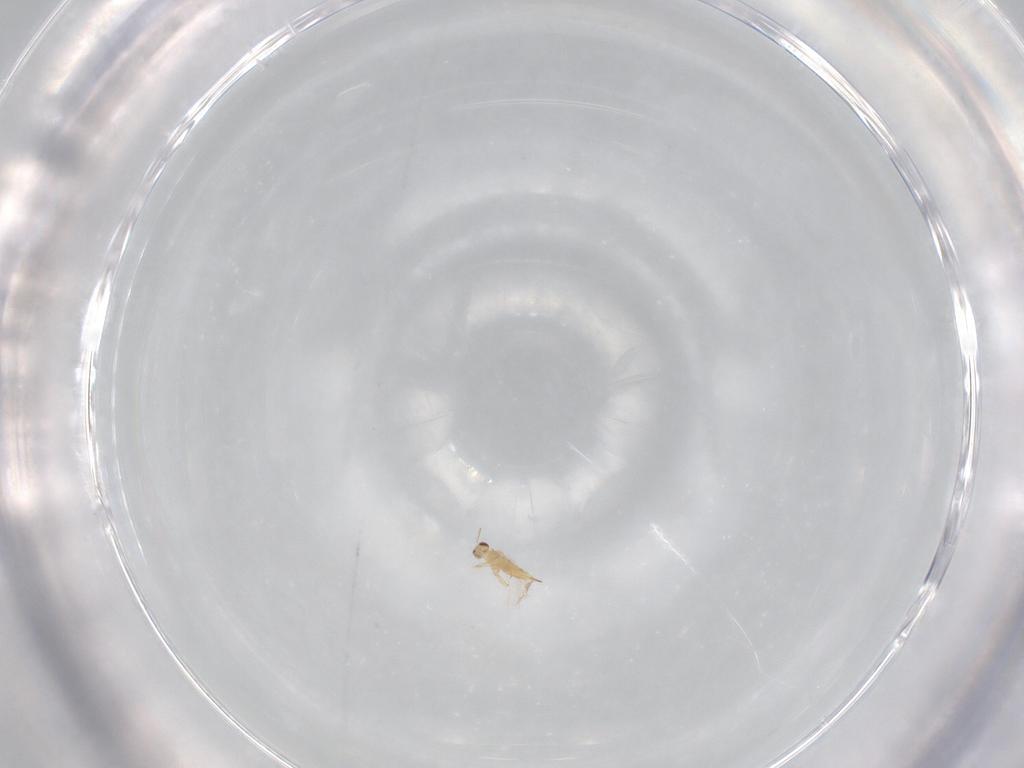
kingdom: Animalia
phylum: Arthropoda
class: Insecta
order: Hymenoptera
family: Mymaridae
